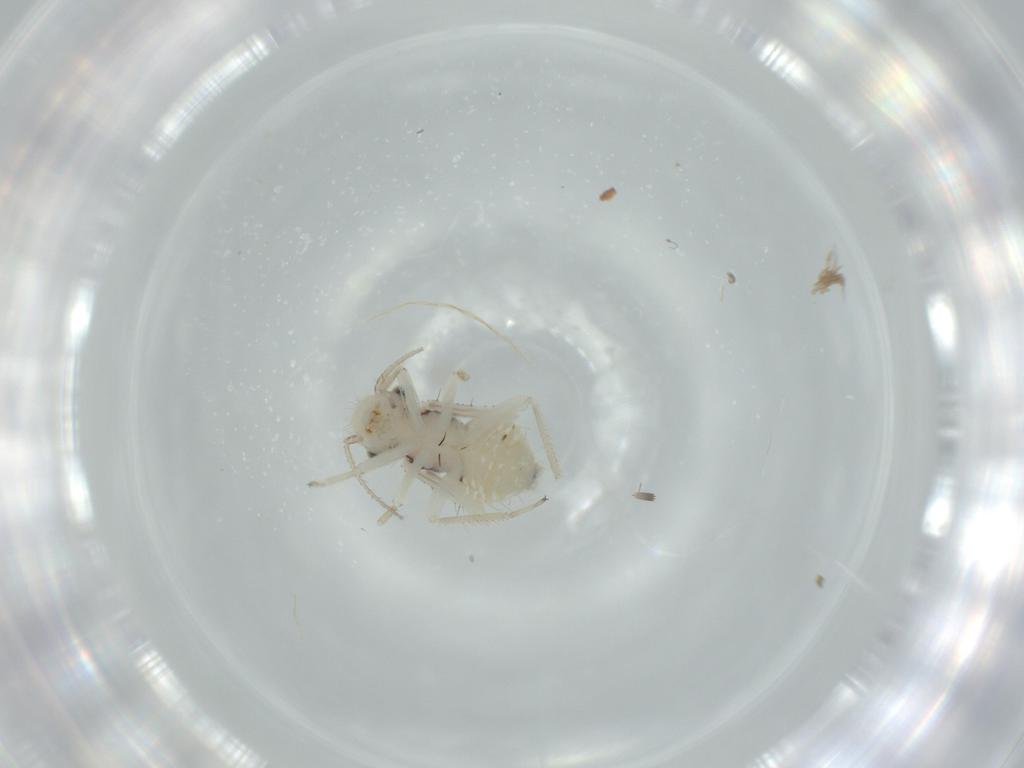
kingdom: Animalia
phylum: Arthropoda
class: Insecta
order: Psocodea
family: Pseudocaeciliidae
